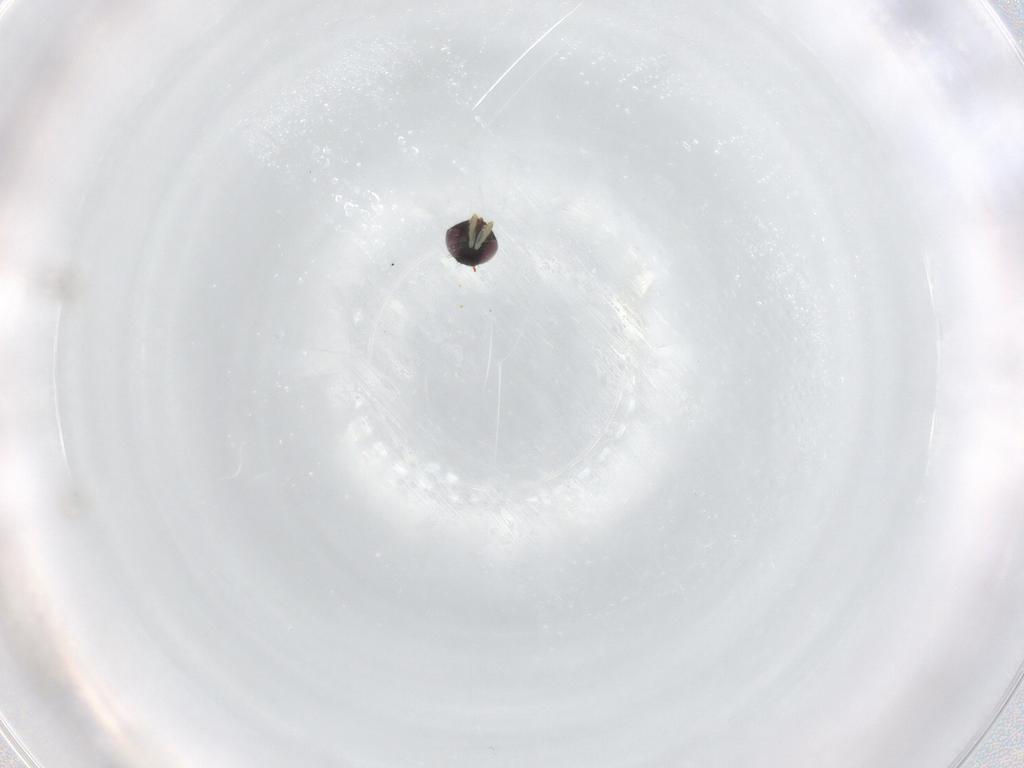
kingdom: Animalia
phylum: Arthropoda
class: Insecta
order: Hymenoptera
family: Aphelinidae
